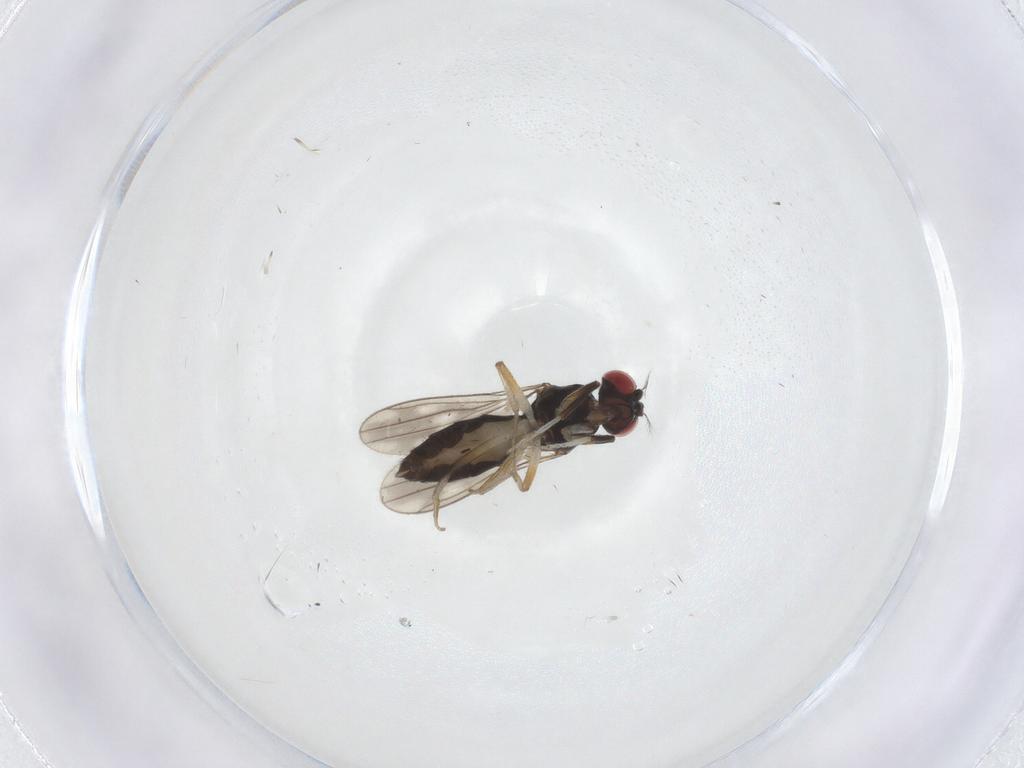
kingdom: Animalia
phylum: Arthropoda
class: Insecta
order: Diptera
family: Drosophilidae
